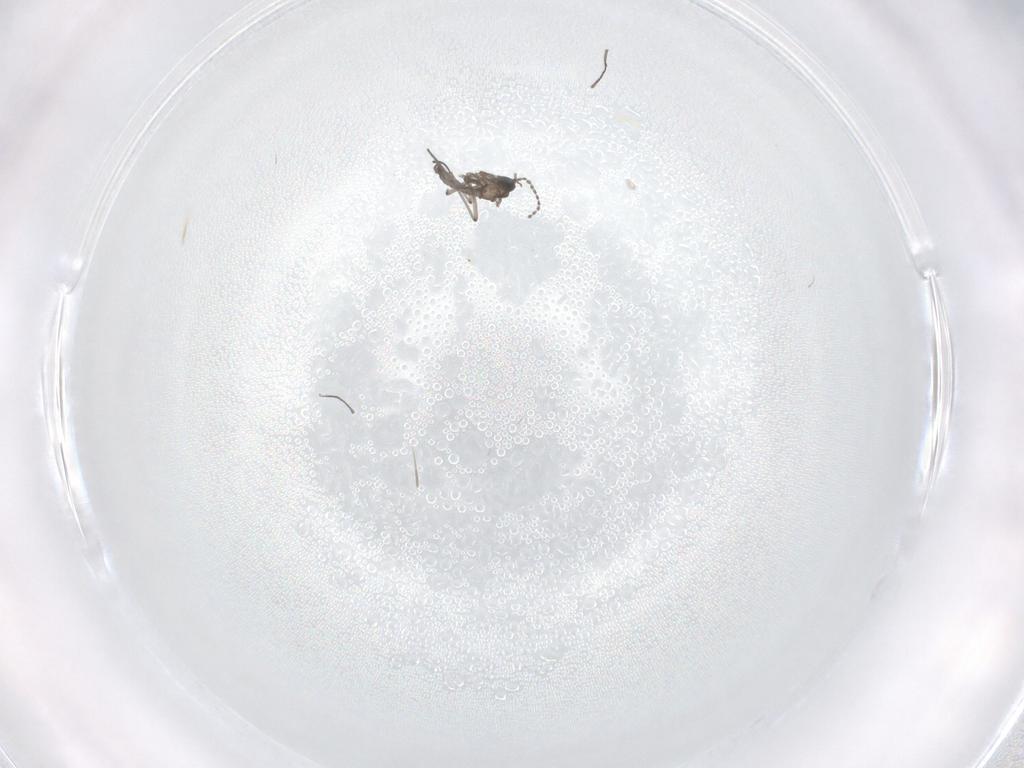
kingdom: Animalia
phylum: Arthropoda
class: Insecta
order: Diptera
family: Sciaridae
